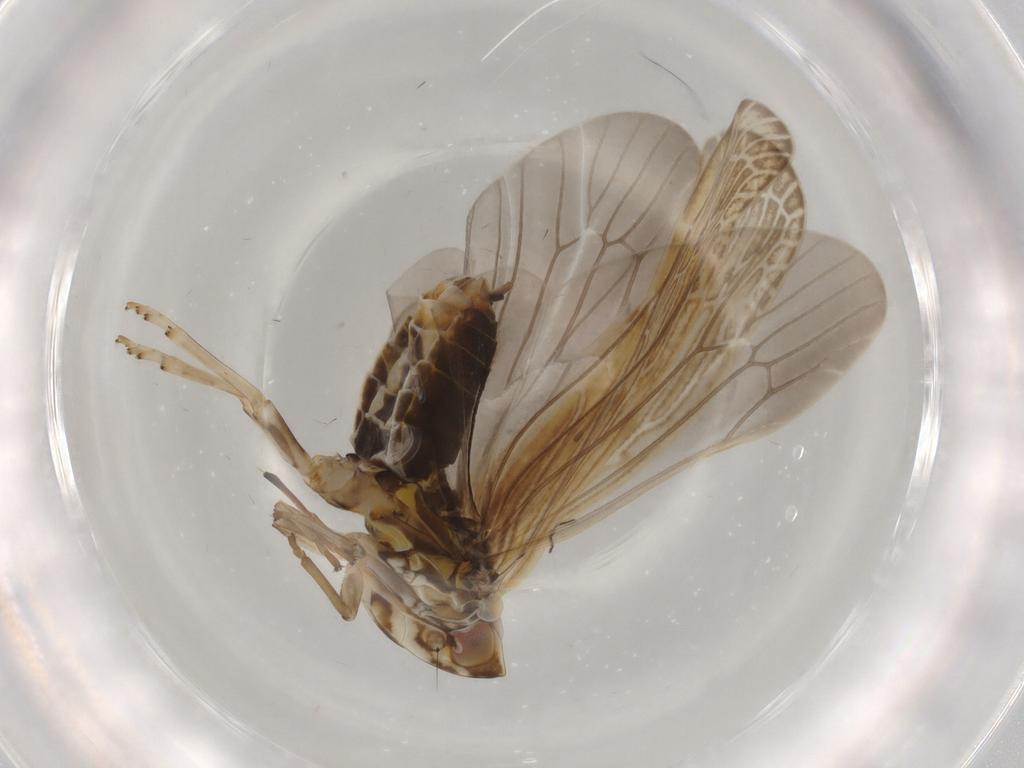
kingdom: Animalia
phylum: Arthropoda
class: Insecta
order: Hemiptera
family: Achilidae
